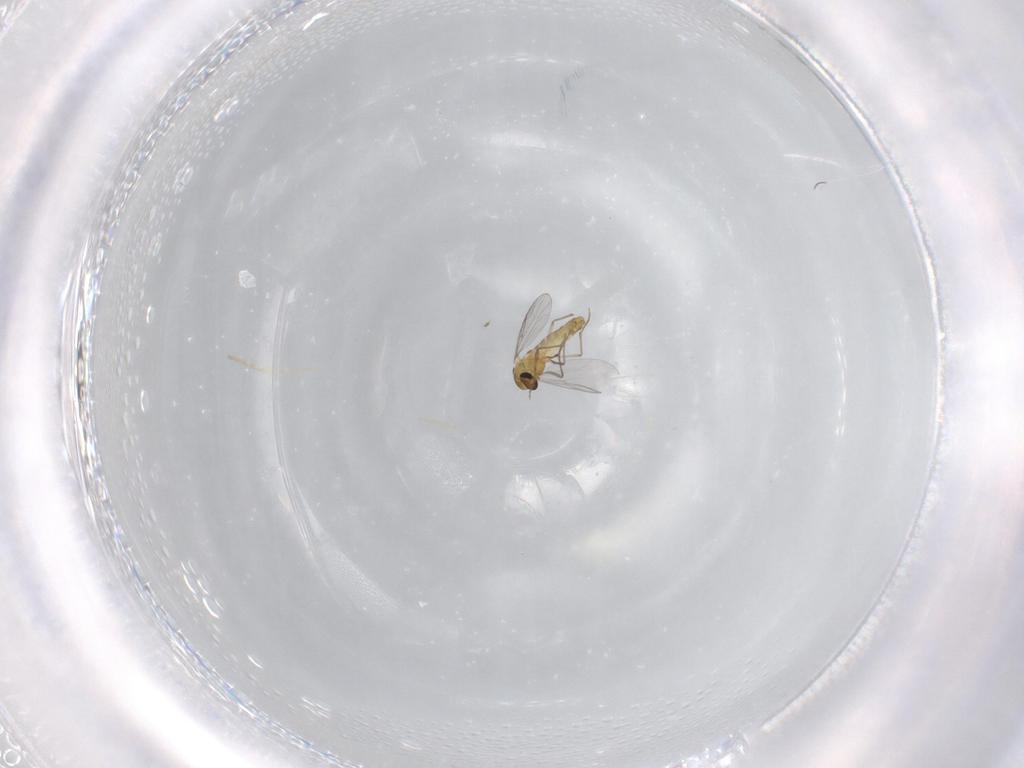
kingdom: Animalia
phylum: Arthropoda
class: Insecta
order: Diptera
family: Chironomidae
